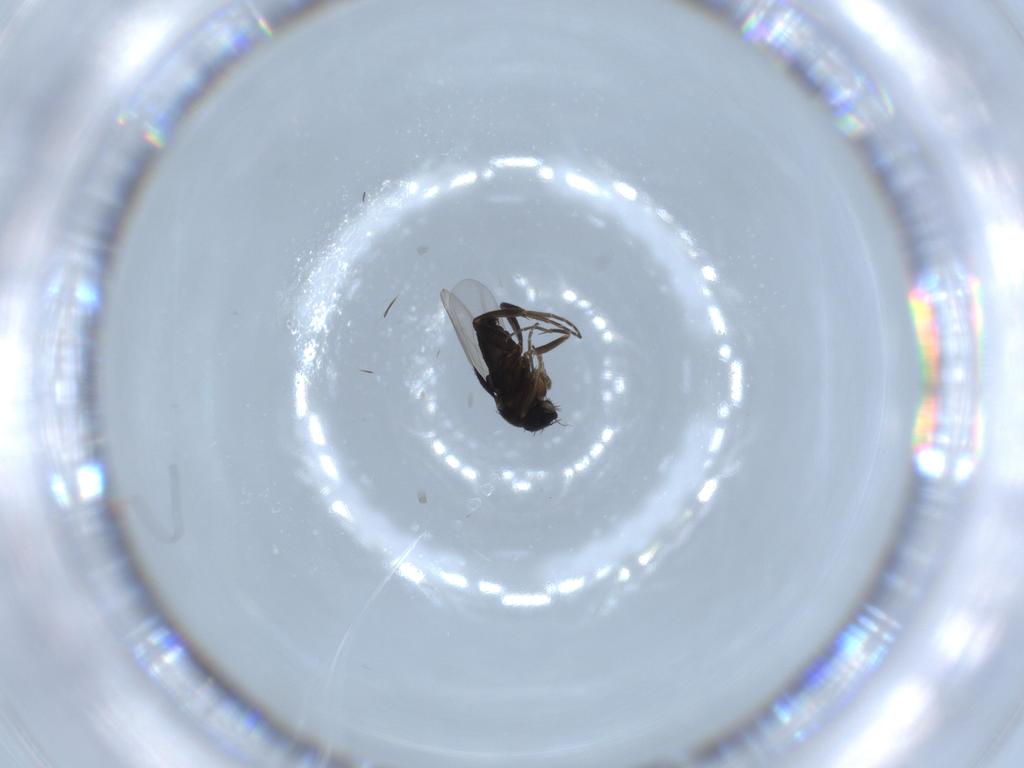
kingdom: Animalia
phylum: Arthropoda
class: Insecta
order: Diptera
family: Phoridae
